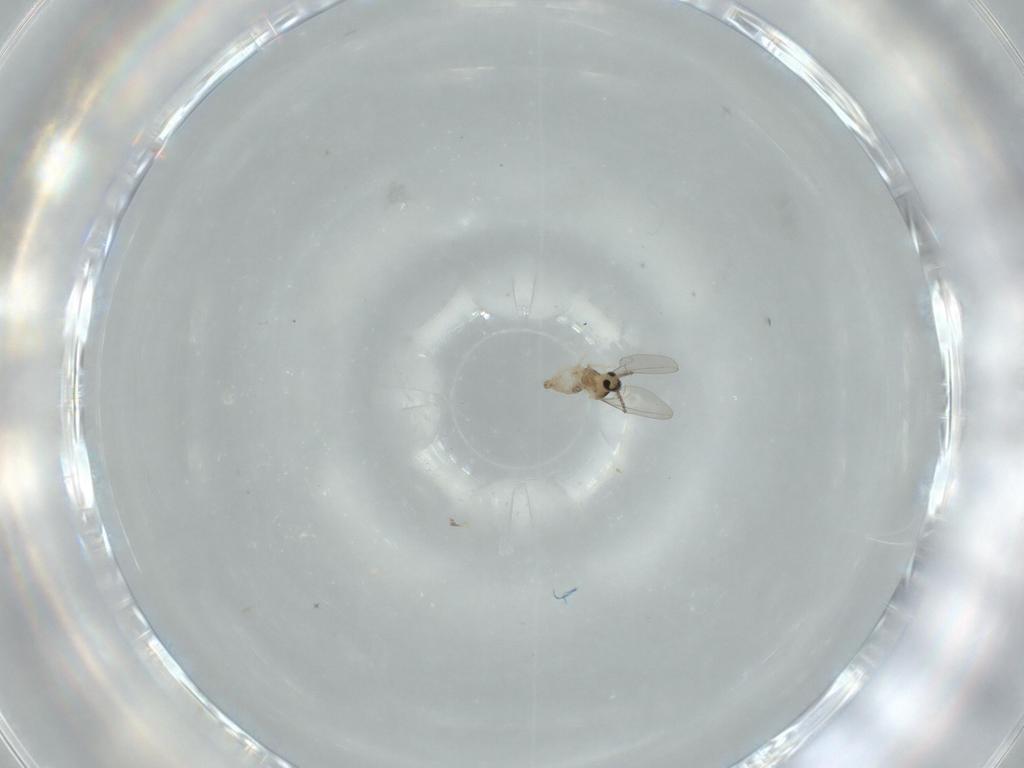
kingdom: Animalia
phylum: Arthropoda
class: Insecta
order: Diptera
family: Cecidomyiidae
